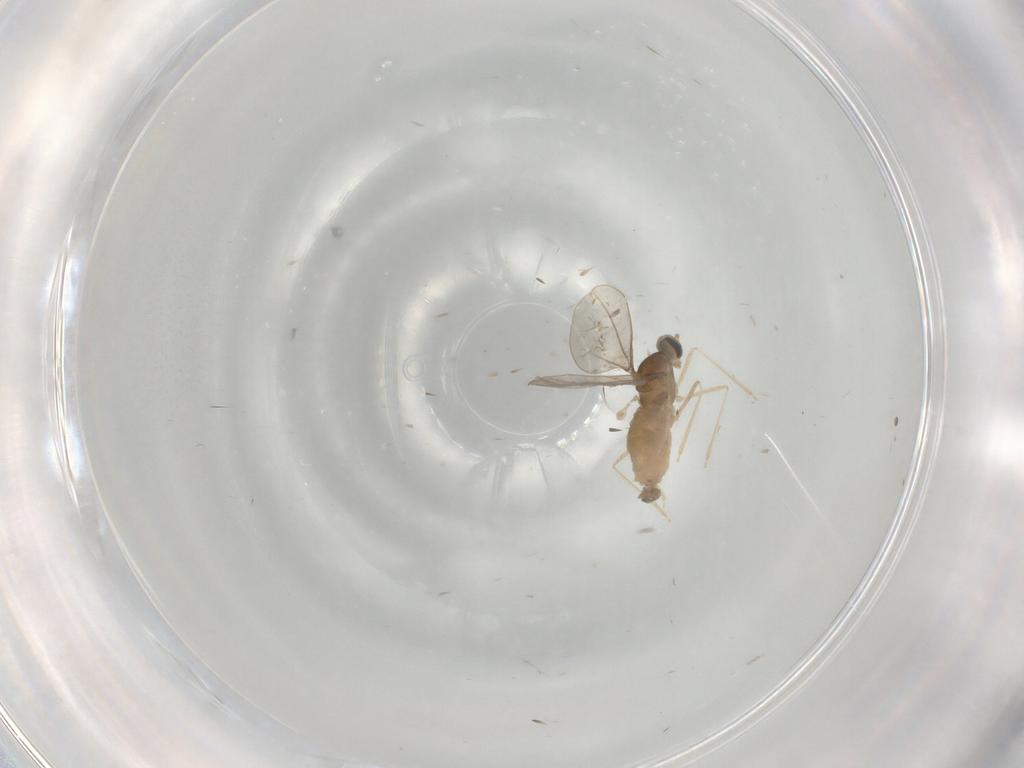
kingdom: Animalia
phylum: Arthropoda
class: Insecta
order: Diptera
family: Cecidomyiidae
